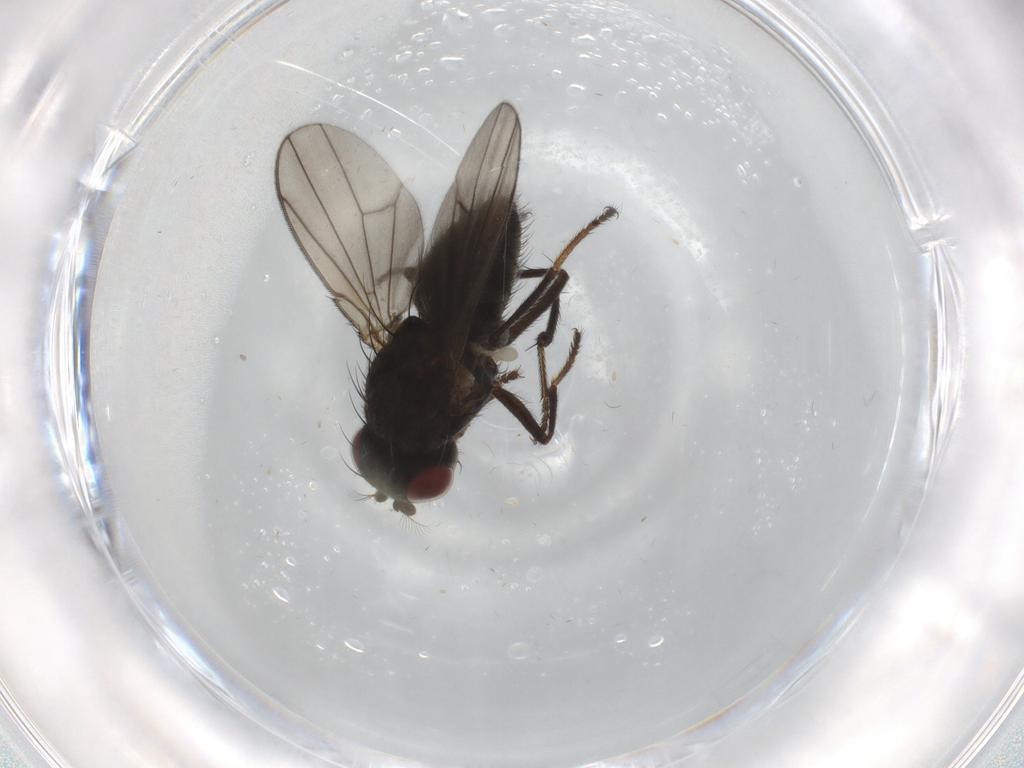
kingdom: Animalia
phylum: Arthropoda
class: Insecta
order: Diptera
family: Ephydridae
